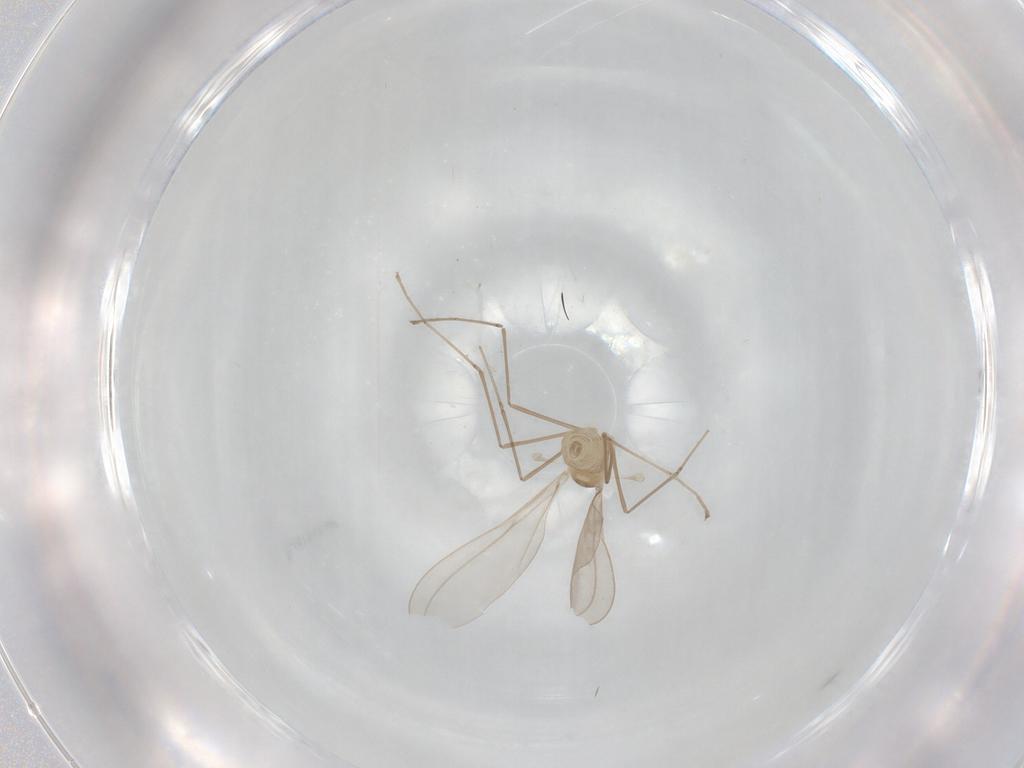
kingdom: Animalia
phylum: Arthropoda
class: Insecta
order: Diptera
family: Cecidomyiidae
